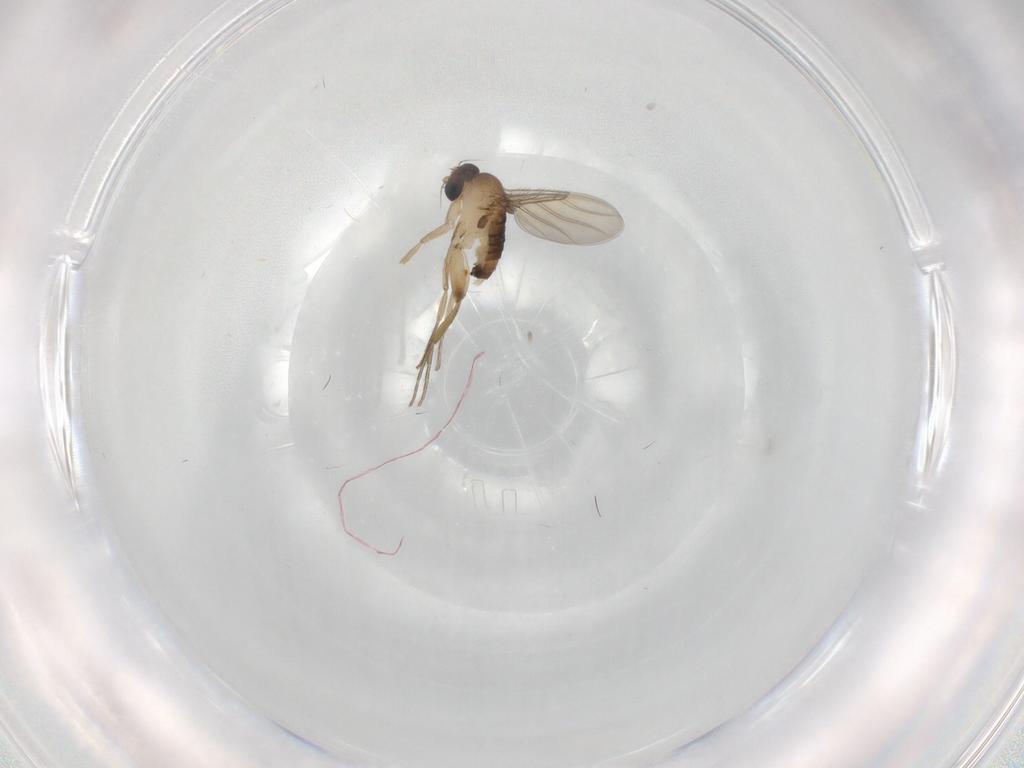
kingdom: Animalia
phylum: Arthropoda
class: Insecta
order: Diptera
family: Phoridae
